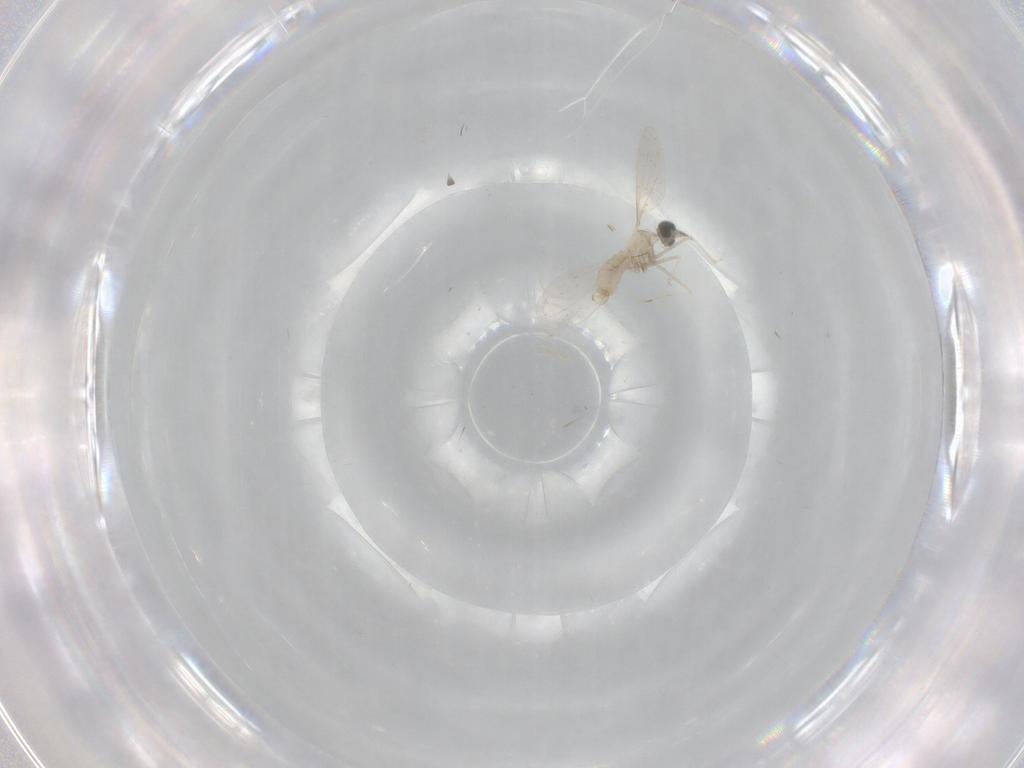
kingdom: Animalia
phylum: Arthropoda
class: Insecta
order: Diptera
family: Cecidomyiidae
